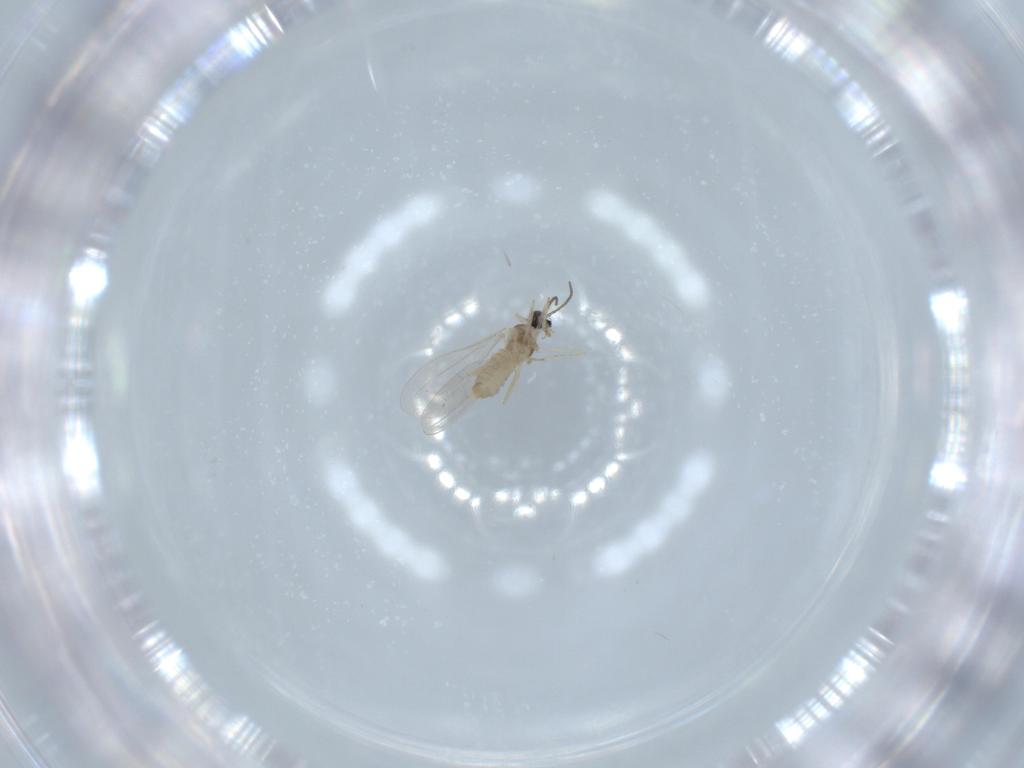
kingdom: Animalia
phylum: Arthropoda
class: Insecta
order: Diptera
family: Cecidomyiidae
